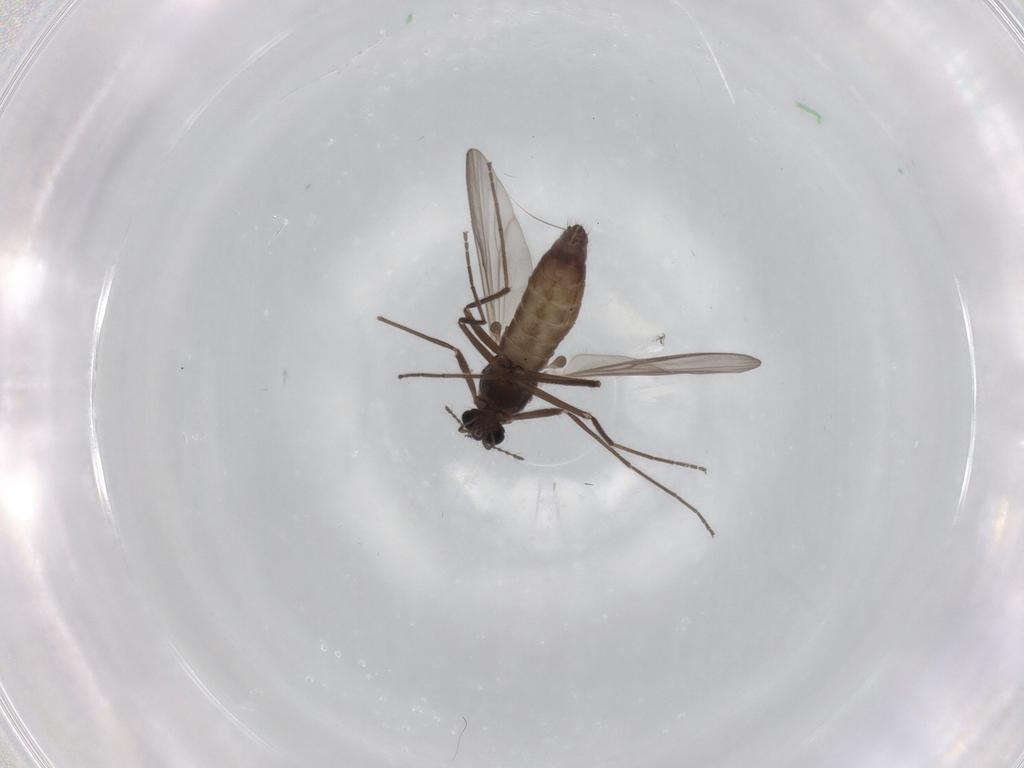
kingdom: Animalia
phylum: Arthropoda
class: Insecta
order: Diptera
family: Chironomidae
